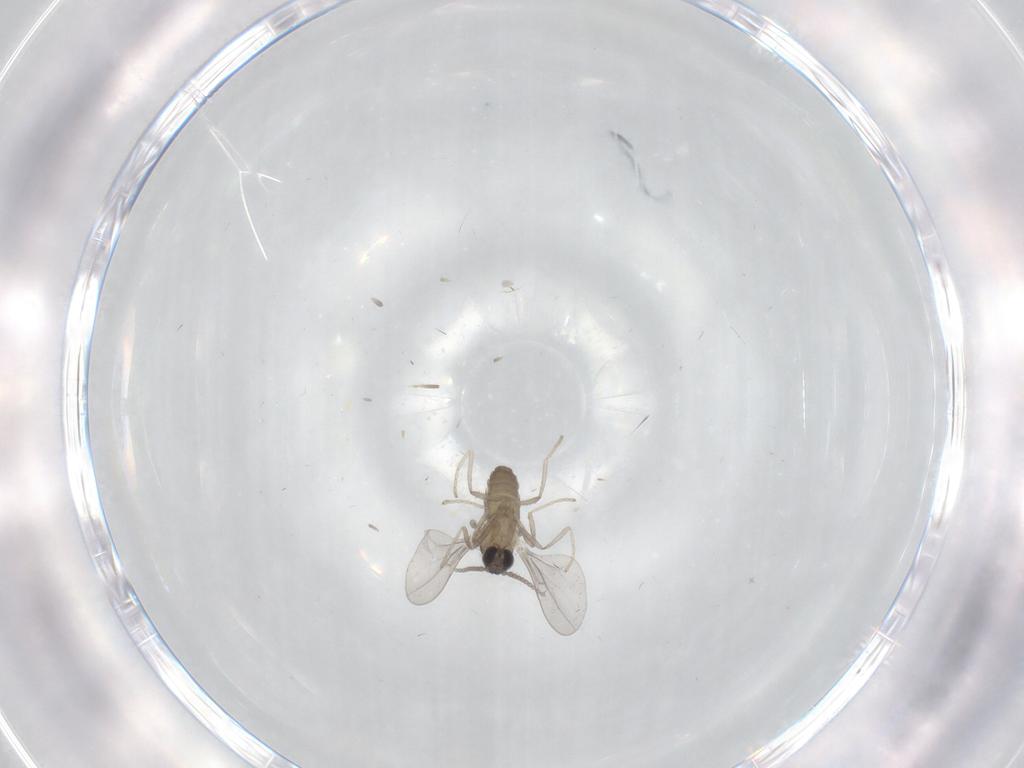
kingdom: Animalia
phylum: Arthropoda
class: Insecta
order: Diptera
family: Cecidomyiidae
